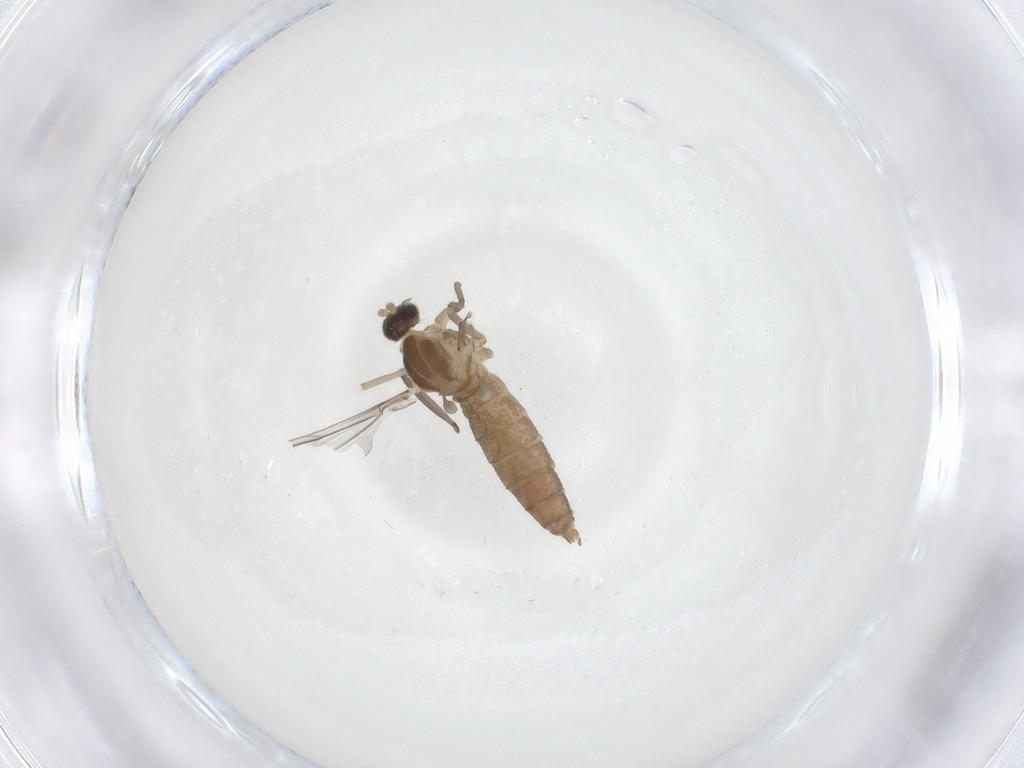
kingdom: Animalia
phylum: Arthropoda
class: Insecta
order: Diptera
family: Cecidomyiidae
